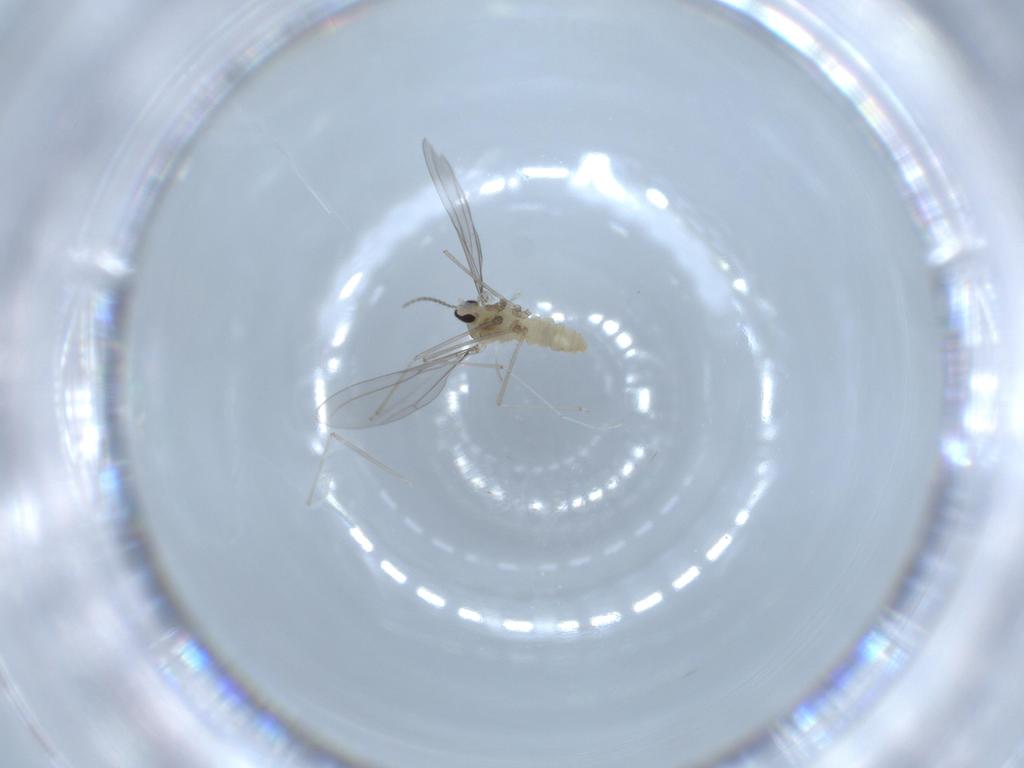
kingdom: Animalia
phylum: Arthropoda
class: Insecta
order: Diptera
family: Cecidomyiidae
